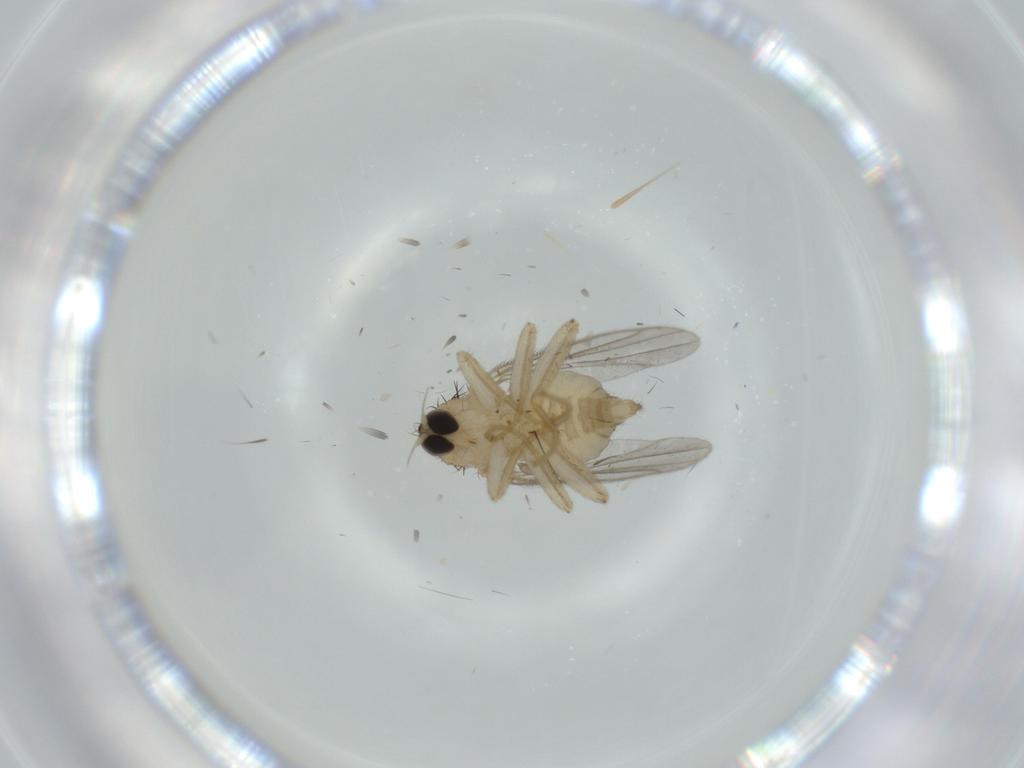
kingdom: Animalia
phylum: Arthropoda
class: Insecta
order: Diptera
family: Hybotidae
